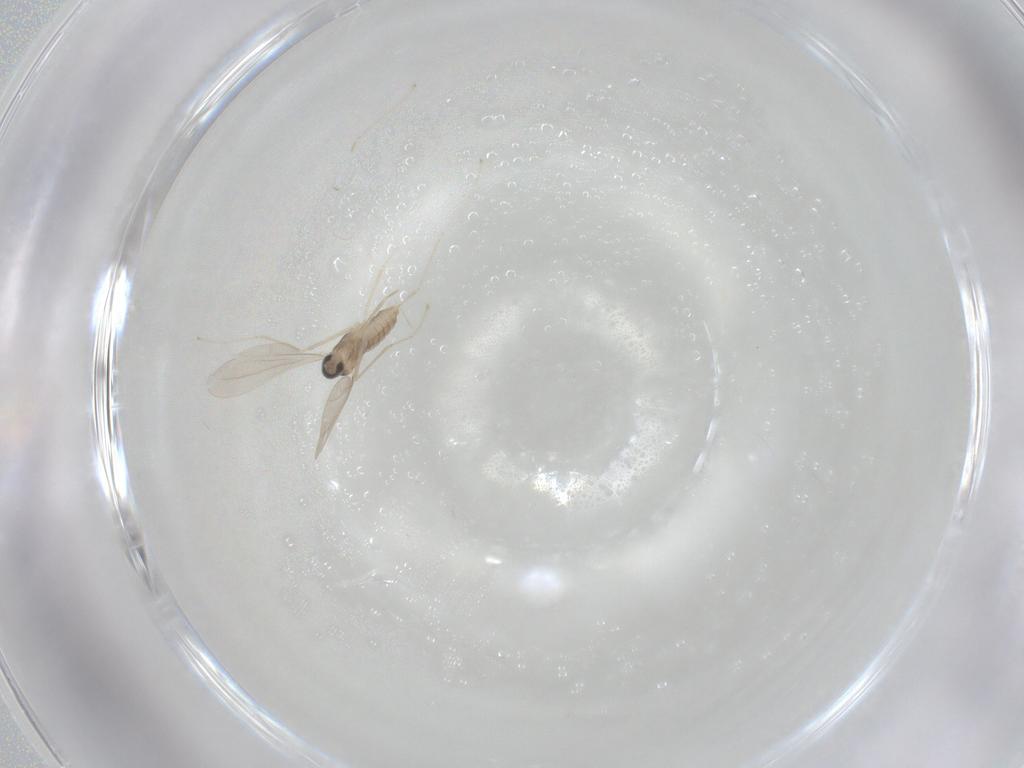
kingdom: Animalia
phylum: Arthropoda
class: Insecta
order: Diptera
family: Cecidomyiidae
